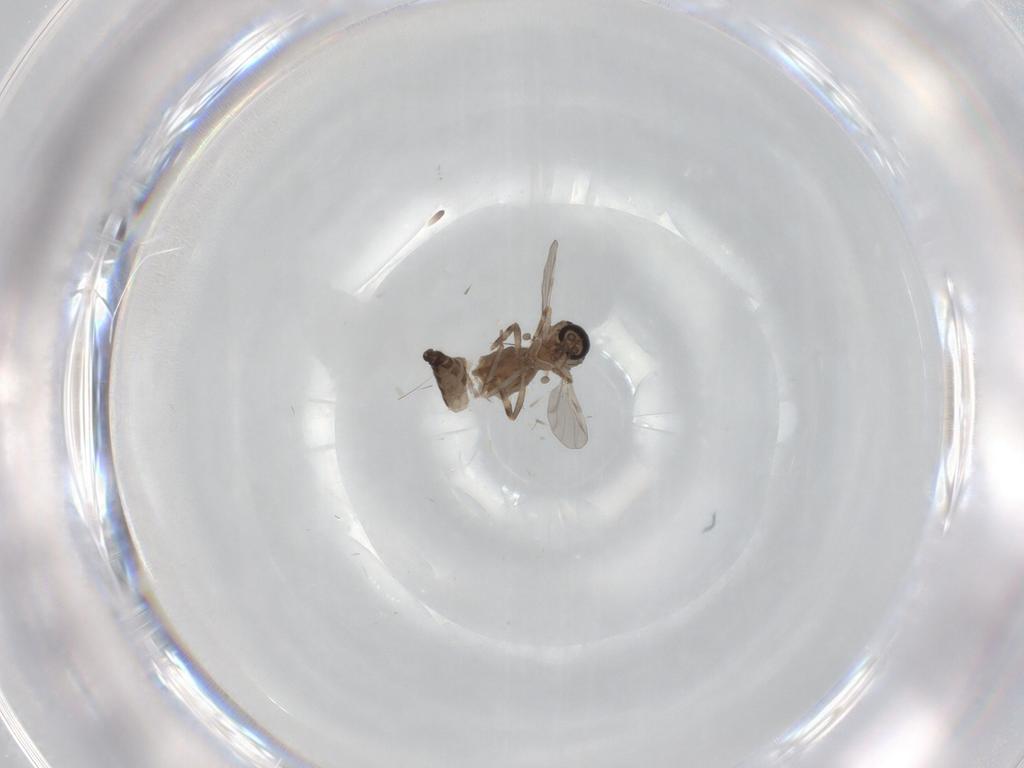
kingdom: Animalia
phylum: Arthropoda
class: Insecta
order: Diptera
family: Ceratopogonidae
